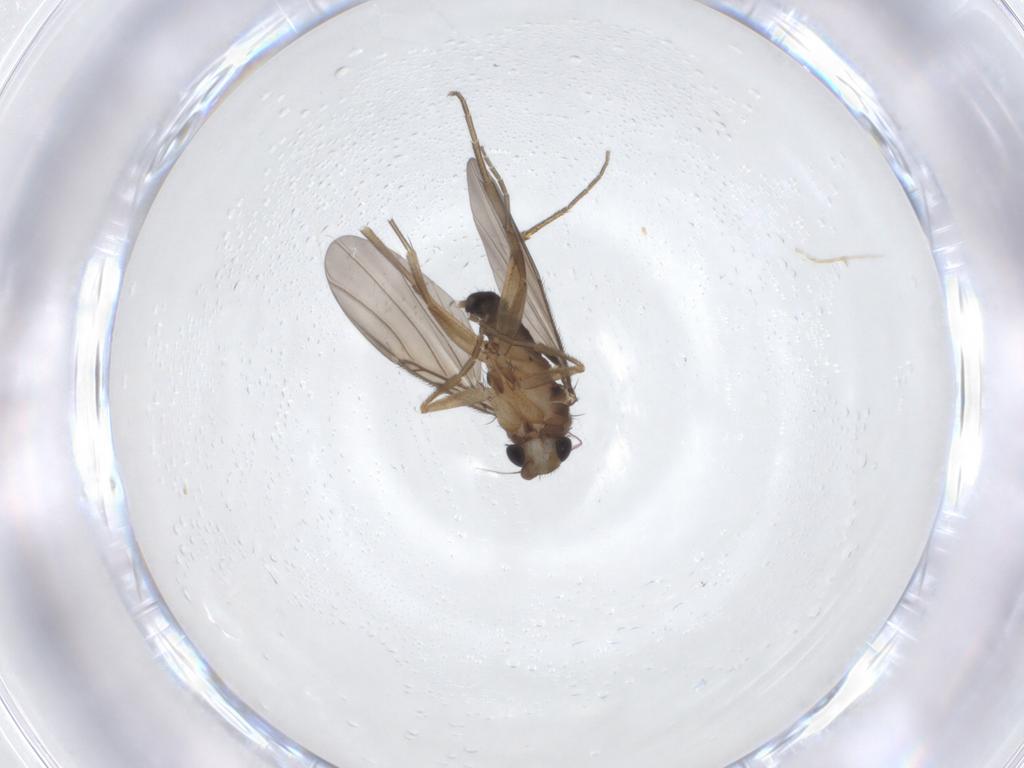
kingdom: Animalia
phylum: Arthropoda
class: Insecta
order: Diptera
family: Phoridae
